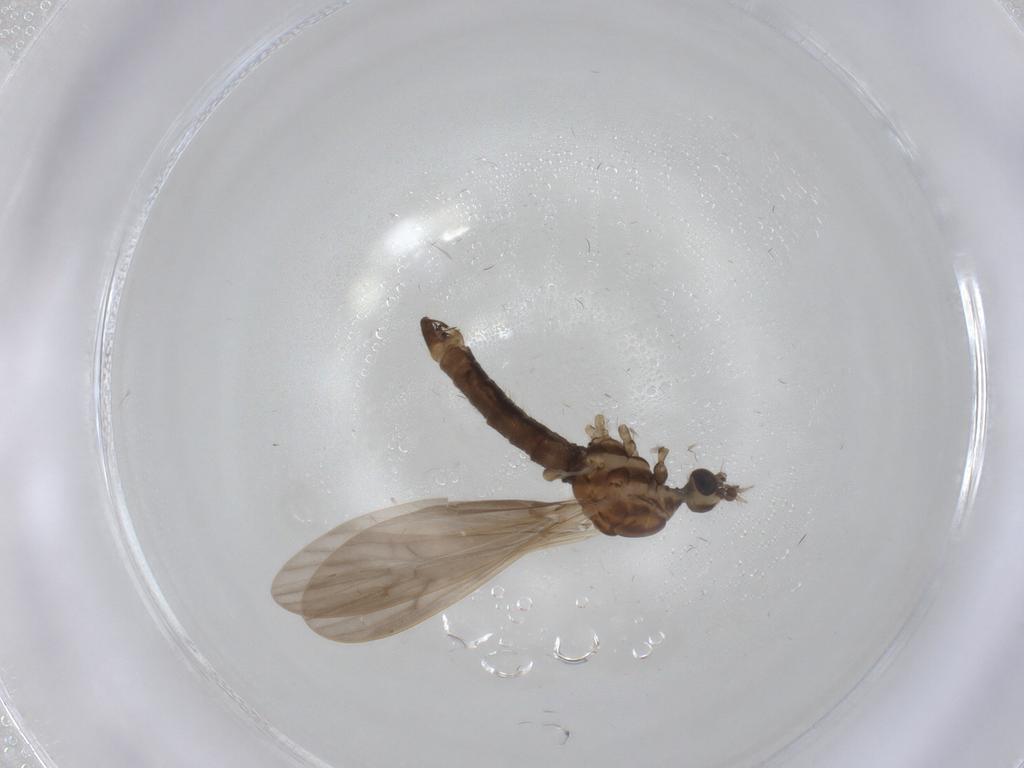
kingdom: Animalia
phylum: Arthropoda
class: Insecta
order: Diptera
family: Limoniidae
